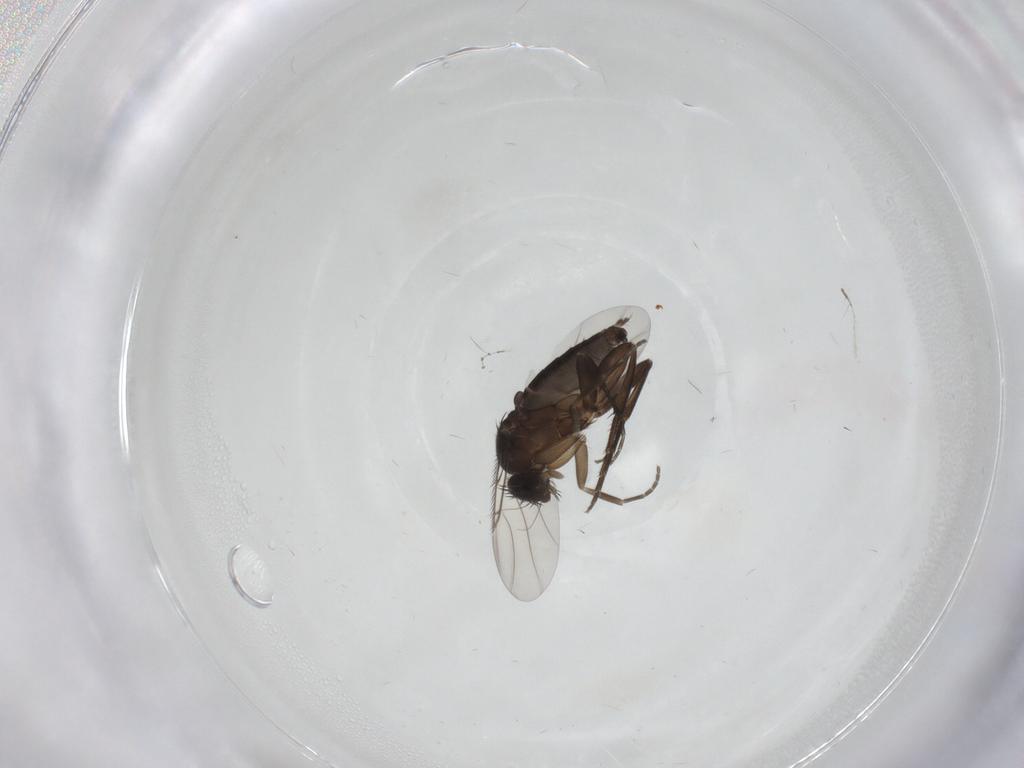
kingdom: Animalia
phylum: Arthropoda
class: Insecta
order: Diptera
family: Phoridae
